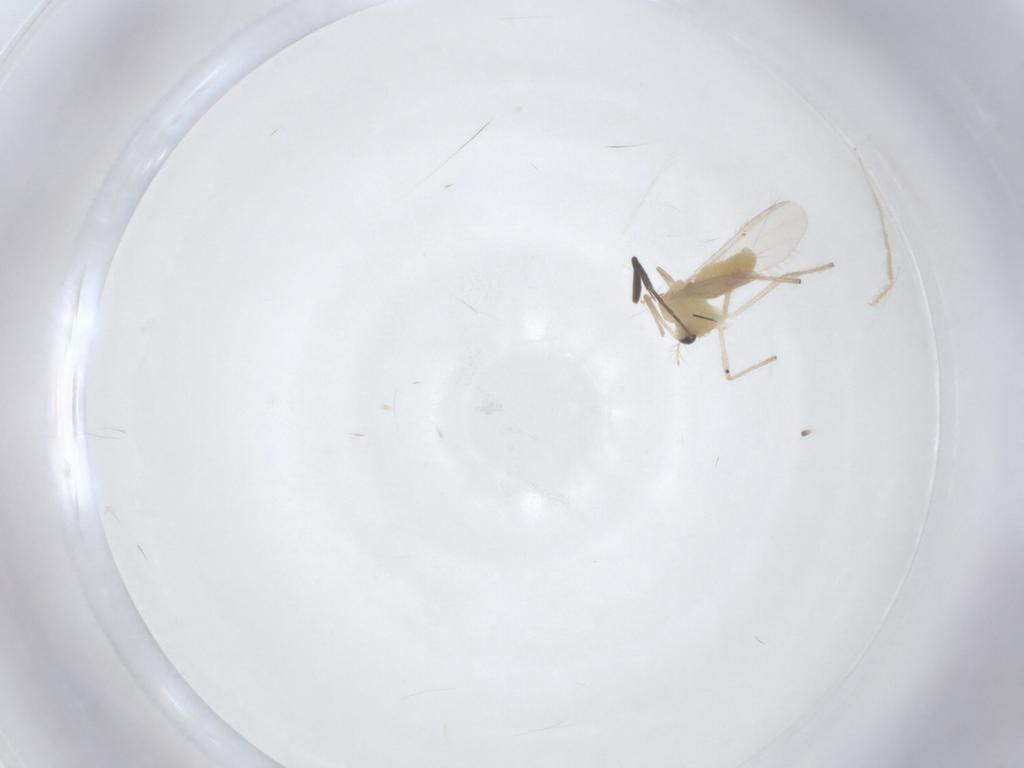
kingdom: Animalia
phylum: Arthropoda
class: Insecta
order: Diptera
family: Chironomidae
